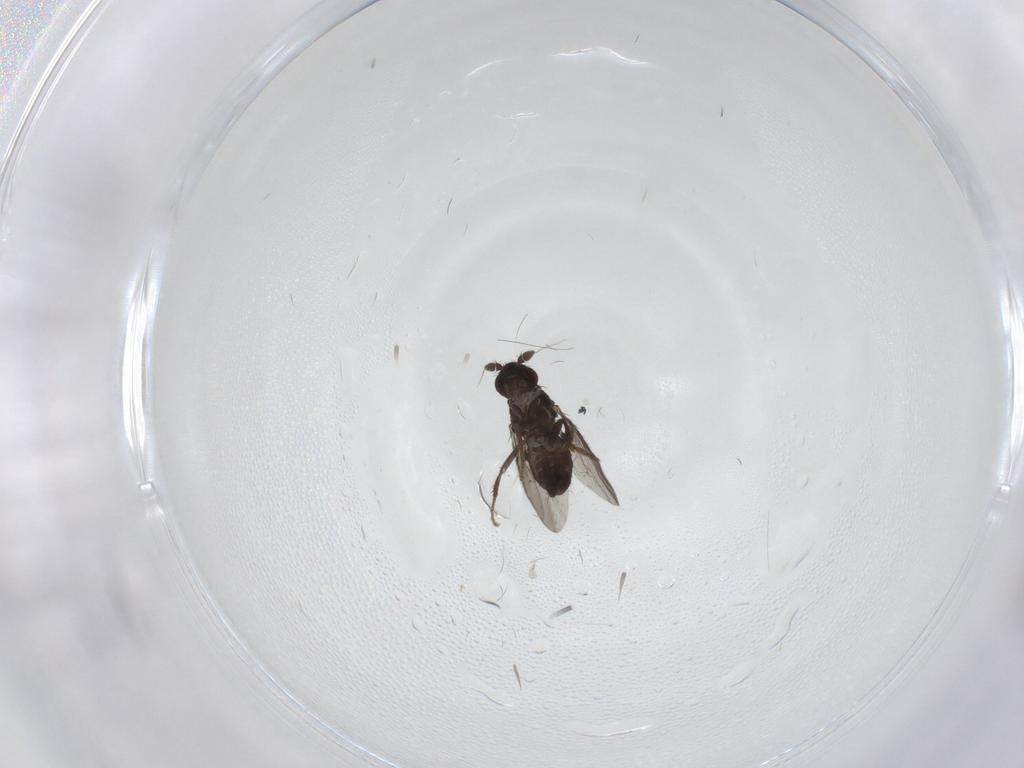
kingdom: Animalia
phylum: Arthropoda
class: Insecta
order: Diptera
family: Sphaeroceridae
